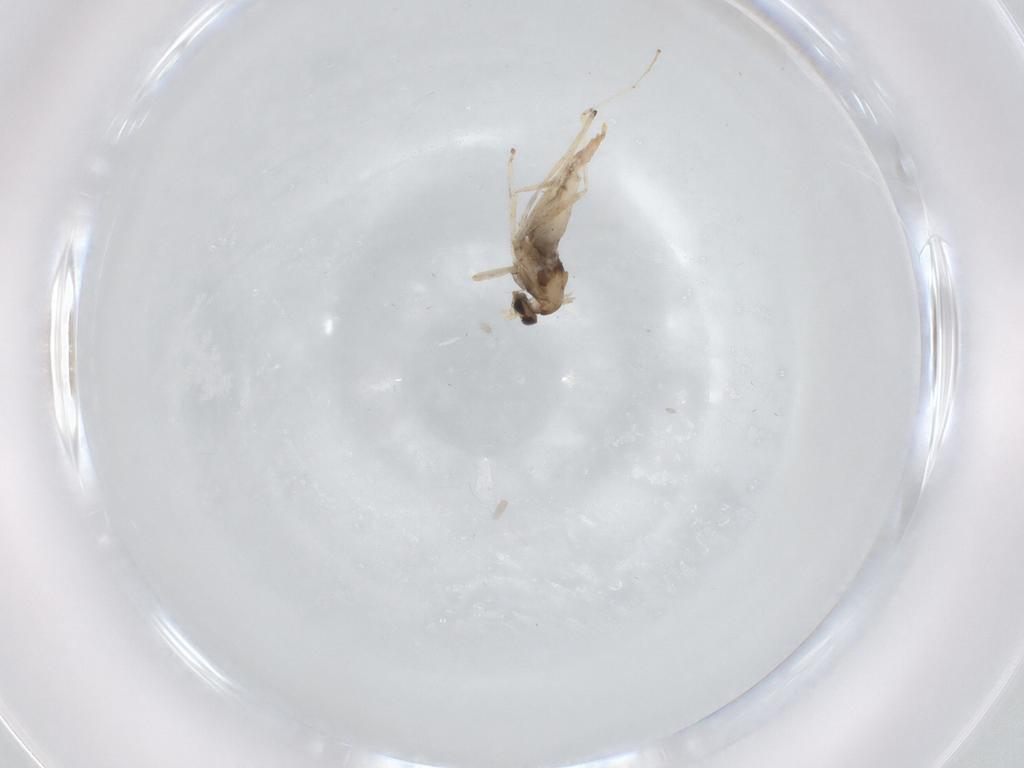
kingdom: Animalia
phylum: Arthropoda
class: Insecta
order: Diptera
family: Cecidomyiidae
